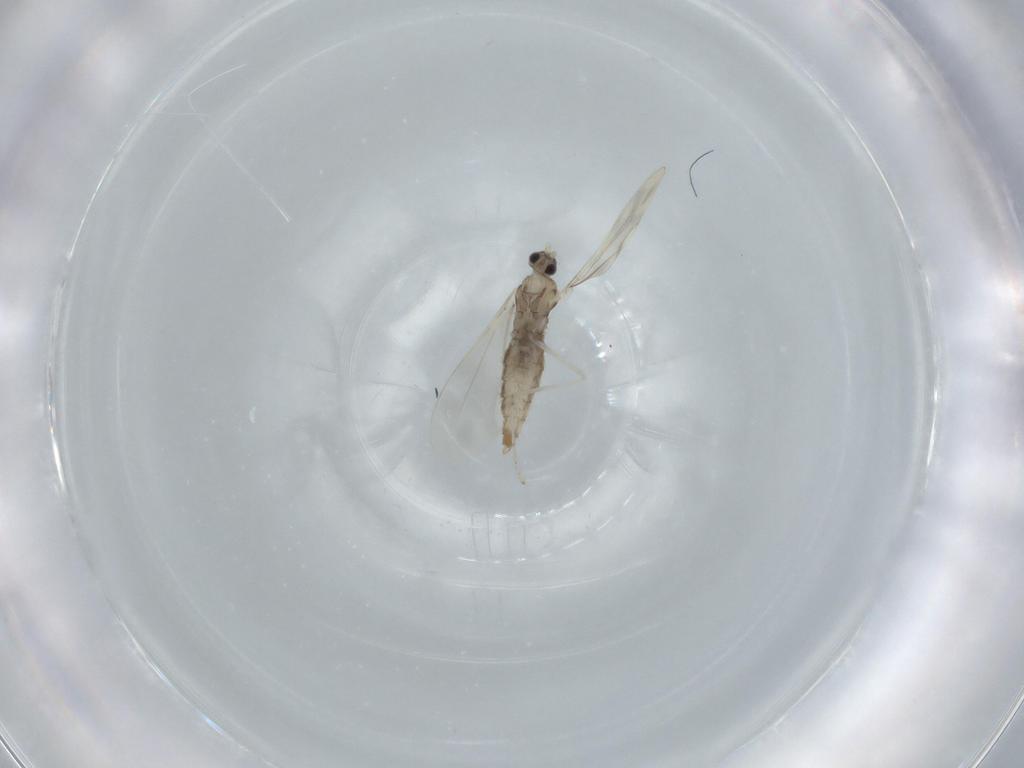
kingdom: Animalia
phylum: Arthropoda
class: Insecta
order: Diptera
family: Cecidomyiidae
